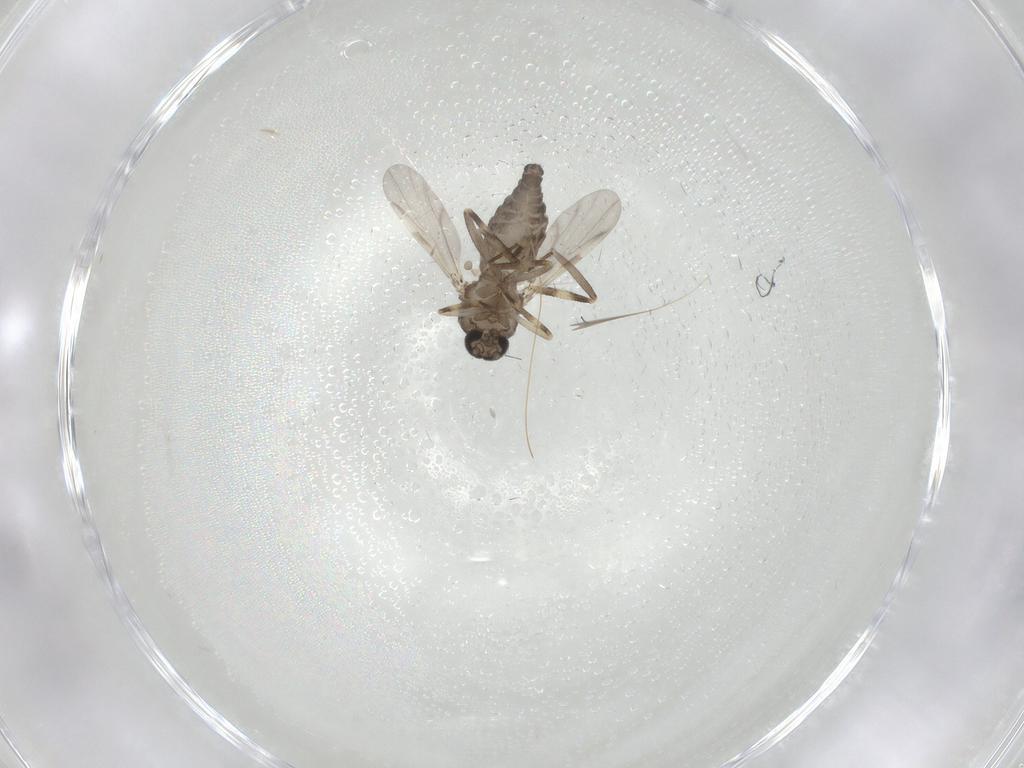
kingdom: Animalia
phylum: Arthropoda
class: Insecta
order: Diptera
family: Ceratopogonidae
